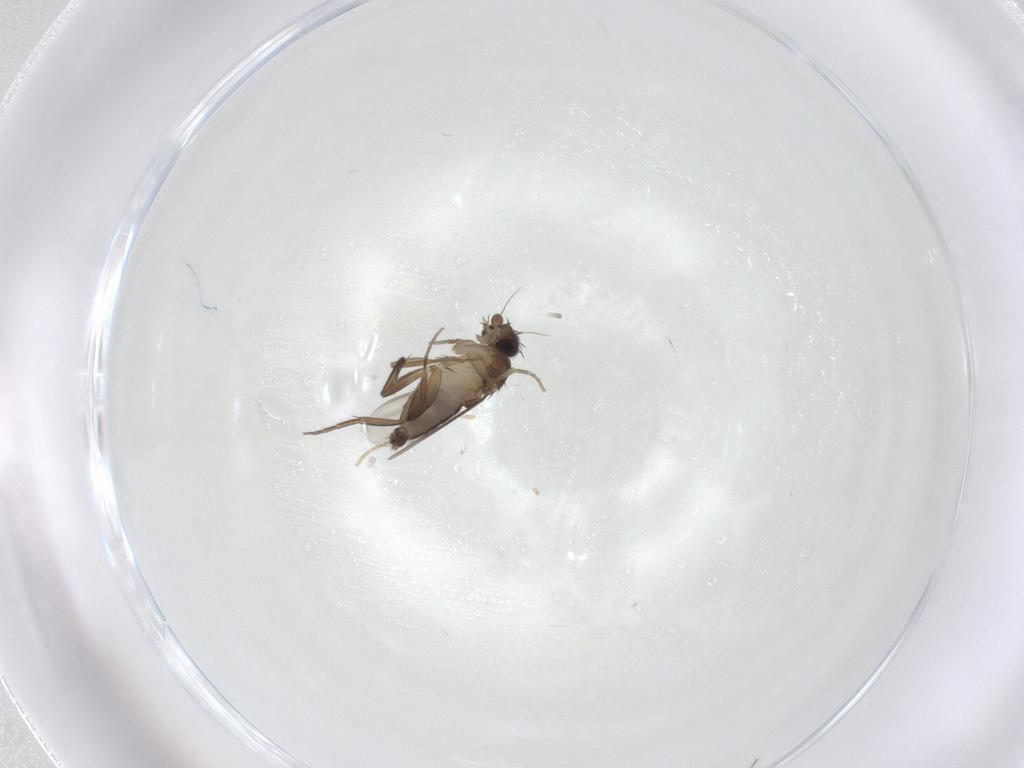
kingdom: Animalia
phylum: Arthropoda
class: Insecta
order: Diptera
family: Phoridae
